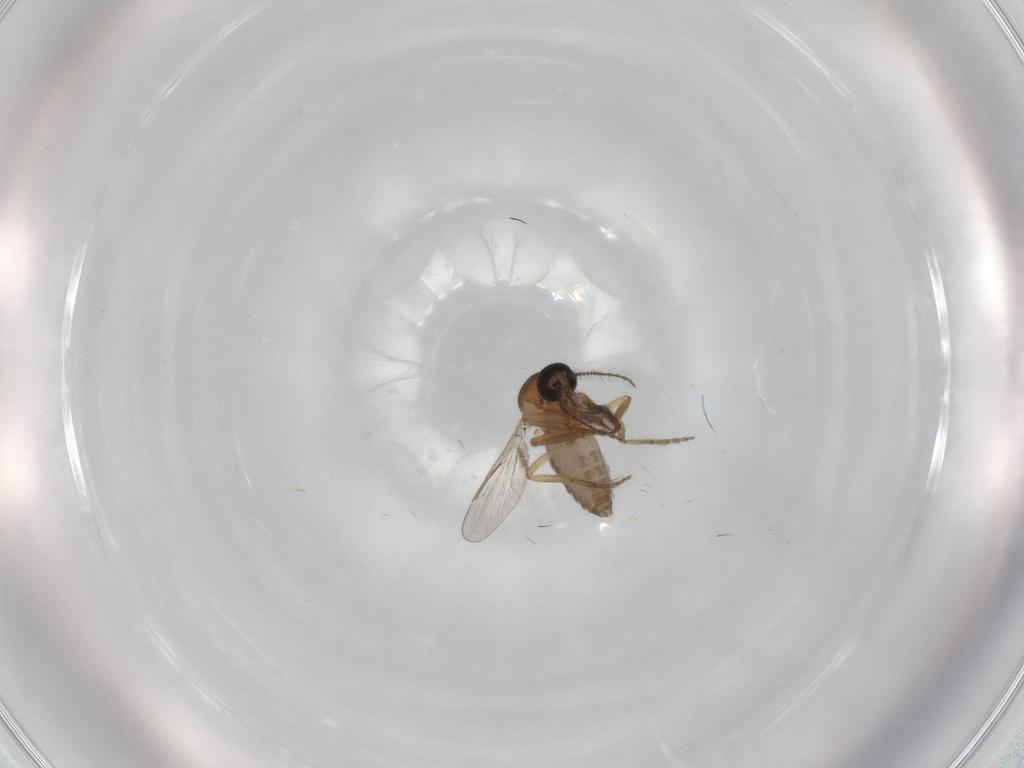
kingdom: Animalia
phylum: Arthropoda
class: Insecta
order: Diptera
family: Ceratopogonidae
